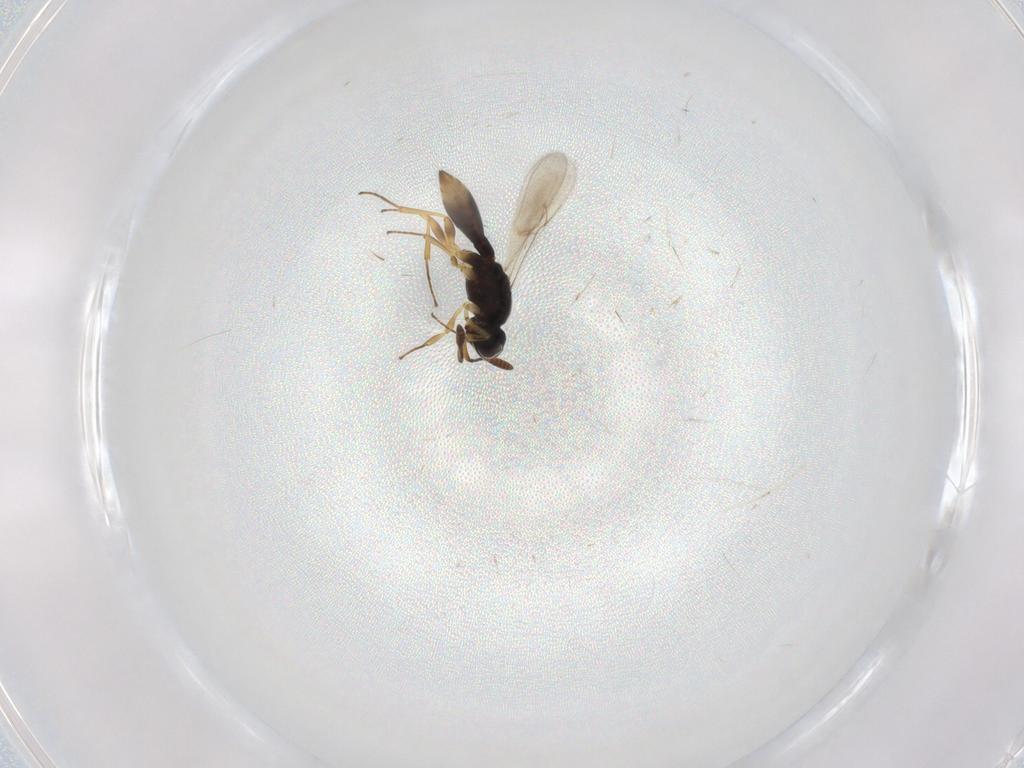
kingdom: Animalia
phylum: Arthropoda
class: Insecta
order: Hymenoptera
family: Scelionidae
